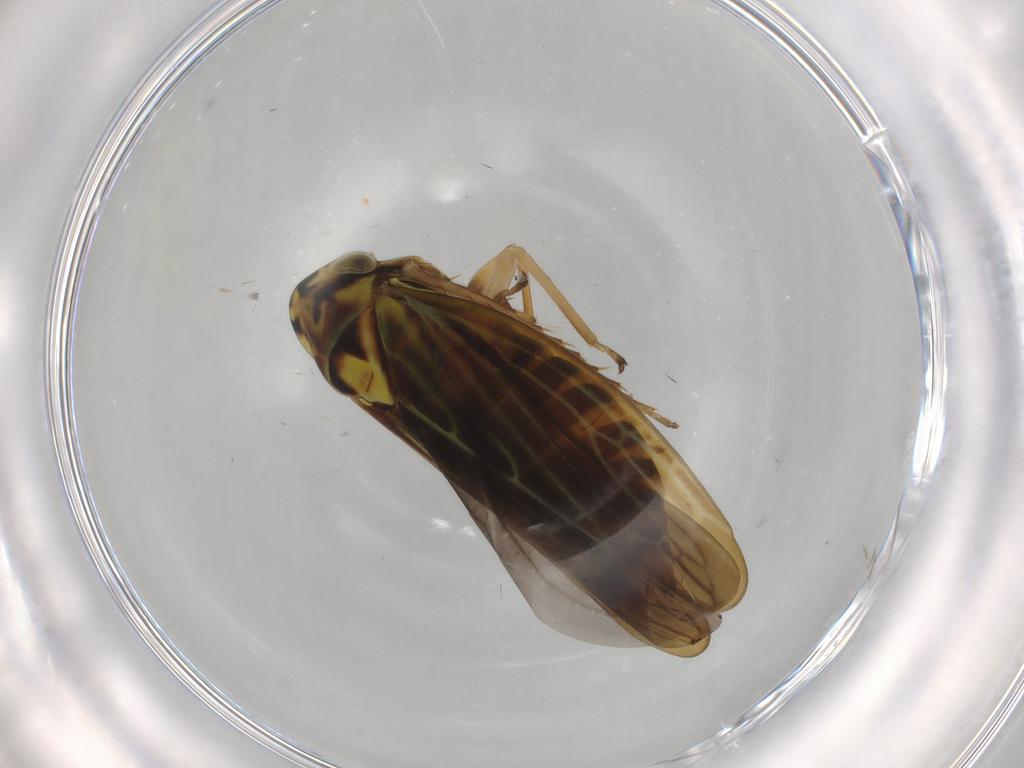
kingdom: Animalia
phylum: Arthropoda
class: Insecta
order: Hemiptera
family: Cicadellidae
